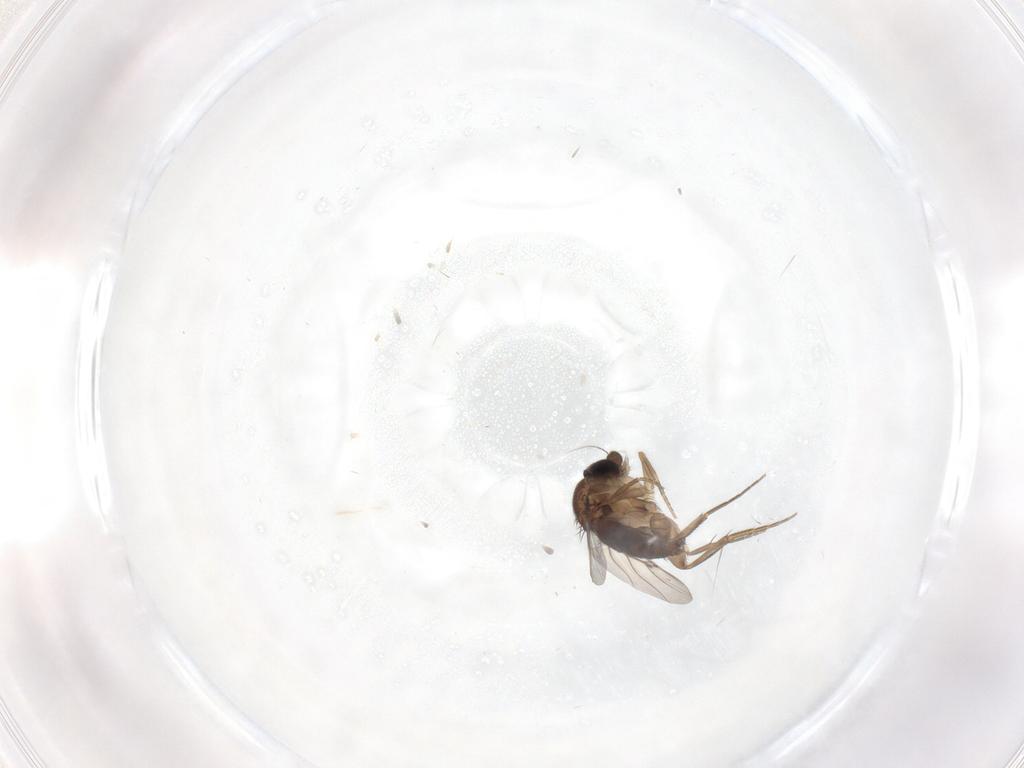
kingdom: Animalia
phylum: Arthropoda
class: Insecta
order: Diptera
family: Phoridae
